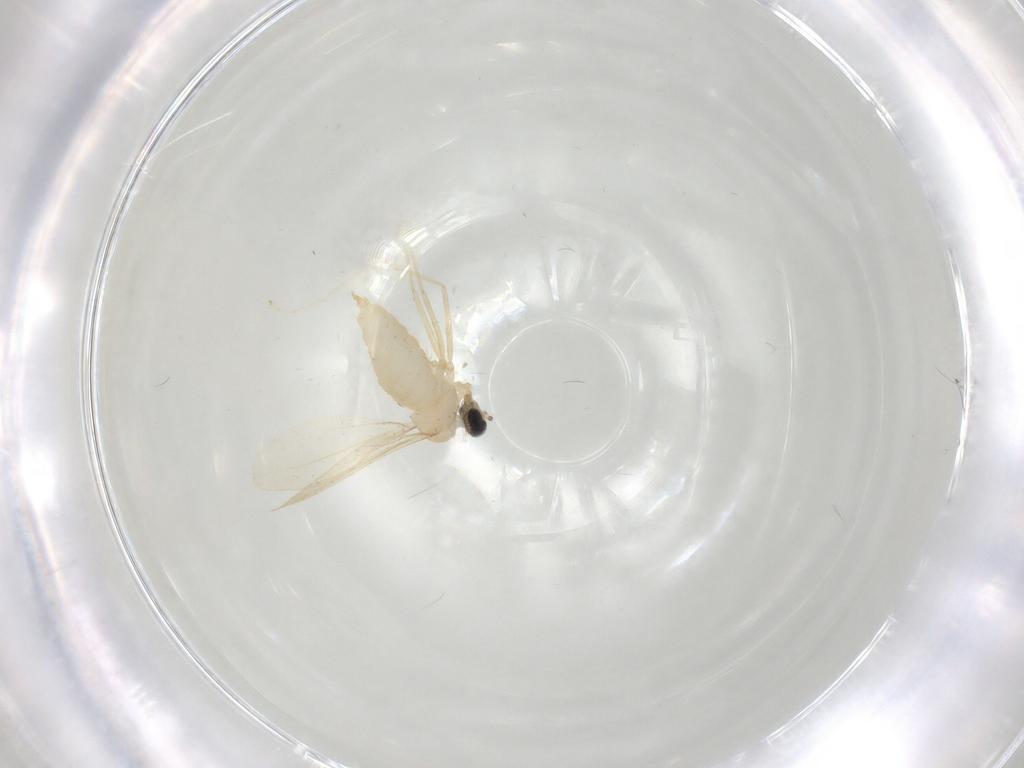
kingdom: Animalia
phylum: Arthropoda
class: Insecta
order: Diptera
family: Cecidomyiidae
